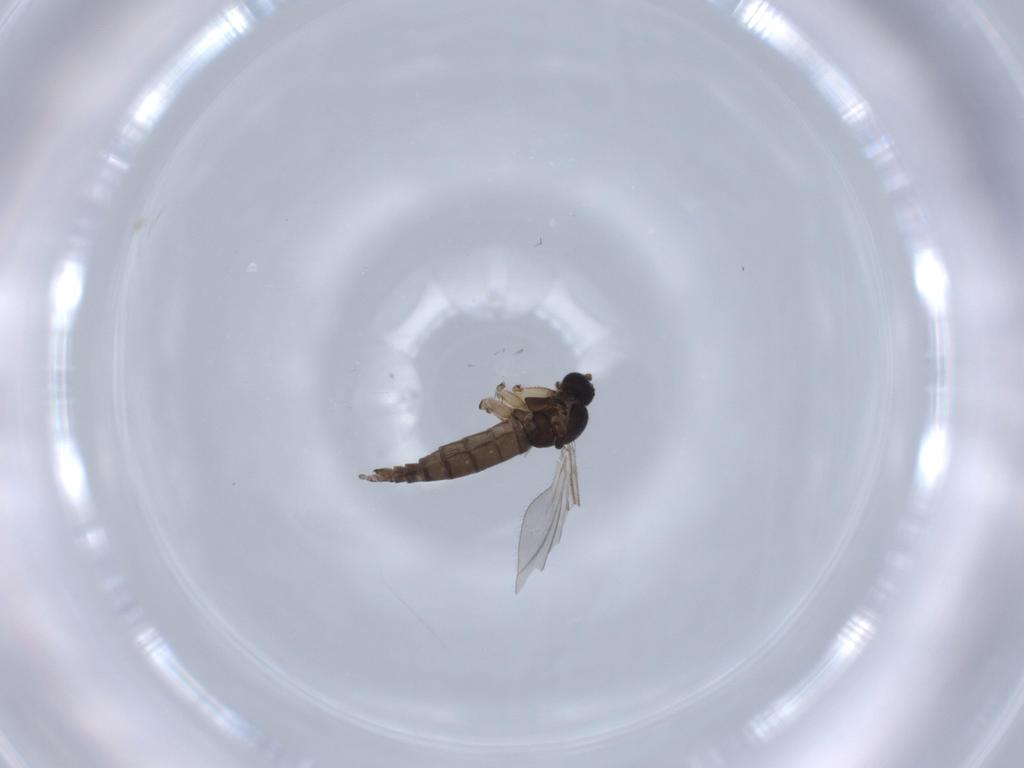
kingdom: Animalia
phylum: Arthropoda
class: Insecta
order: Diptera
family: Sciaridae
